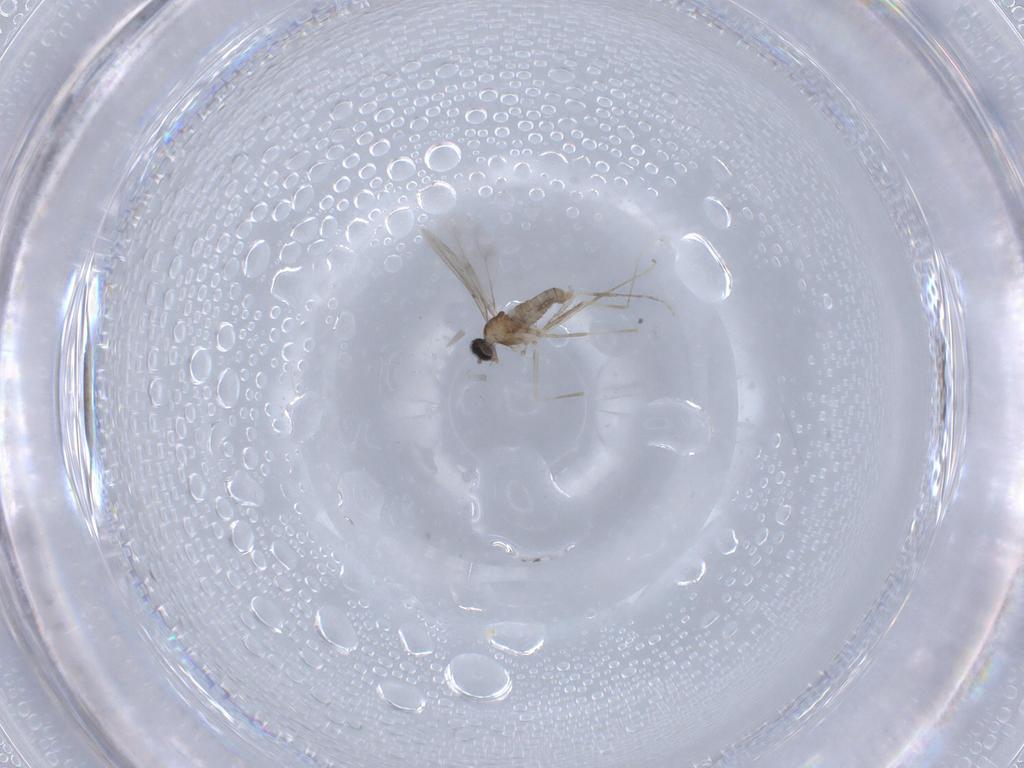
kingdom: Animalia
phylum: Arthropoda
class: Insecta
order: Diptera
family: Cecidomyiidae
